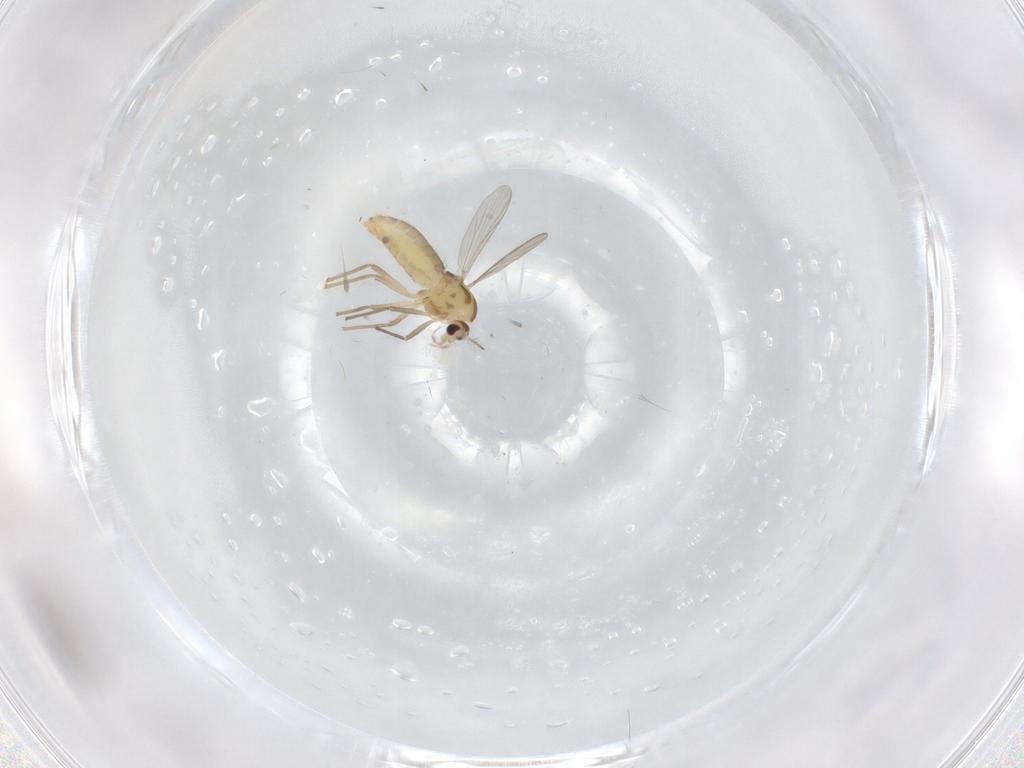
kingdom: Animalia
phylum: Arthropoda
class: Insecta
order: Diptera
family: Chironomidae
